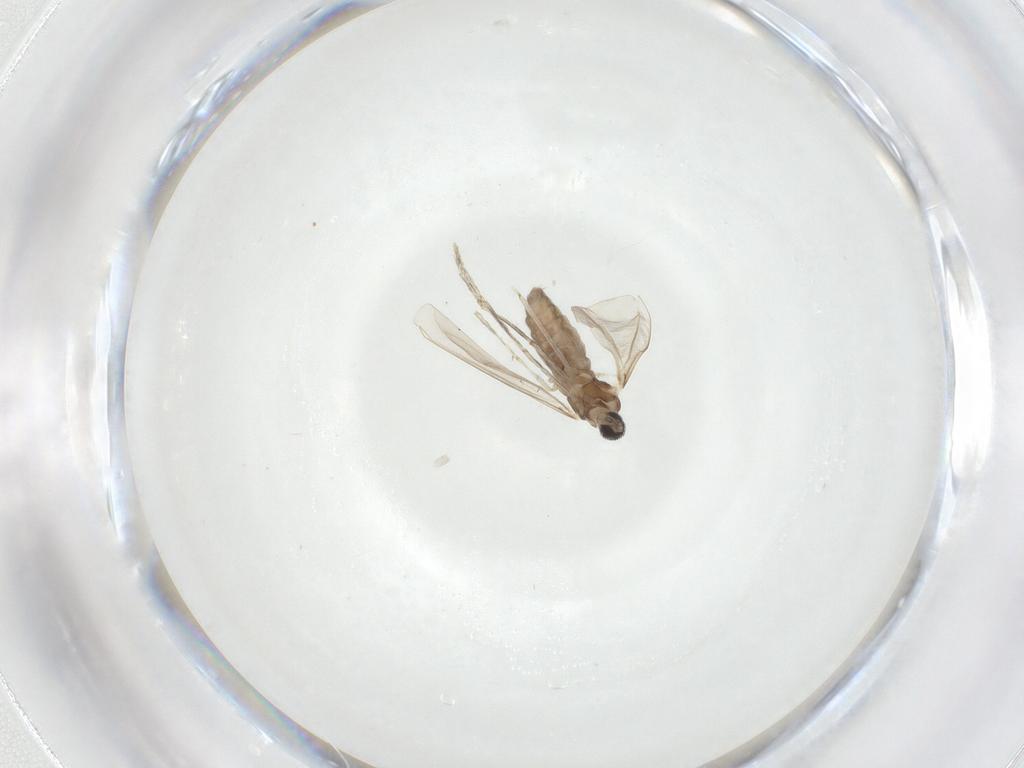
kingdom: Animalia
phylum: Arthropoda
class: Insecta
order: Diptera
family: Cecidomyiidae
